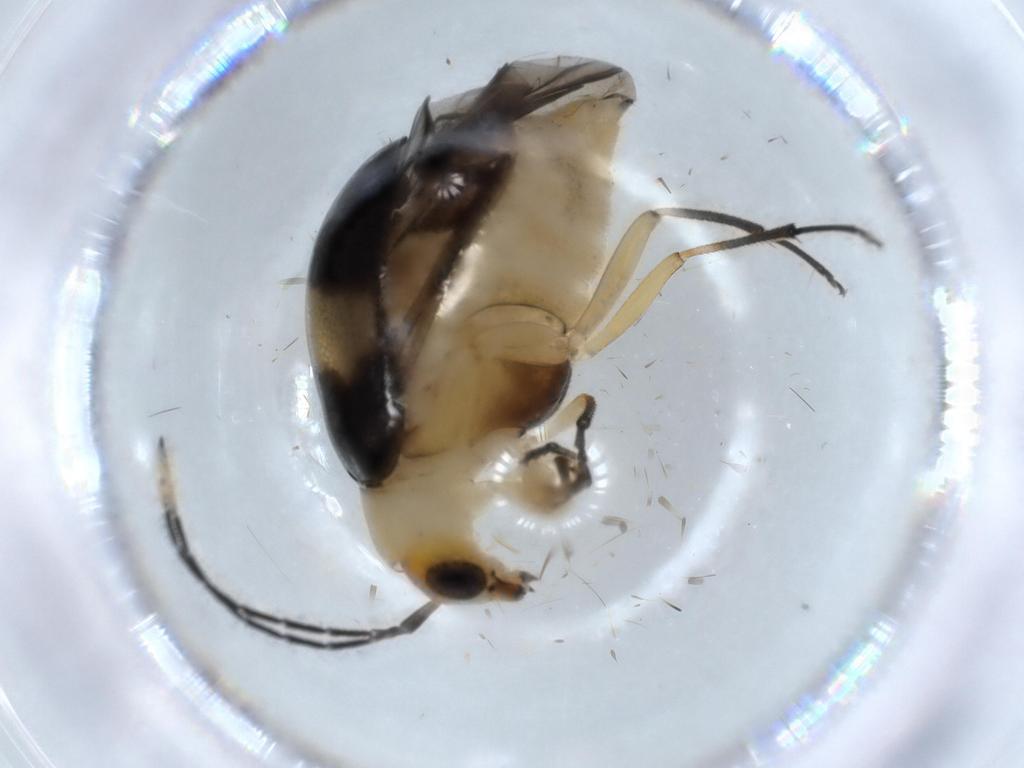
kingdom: Animalia
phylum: Arthropoda
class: Insecta
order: Coleoptera
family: Chrysomelidae
